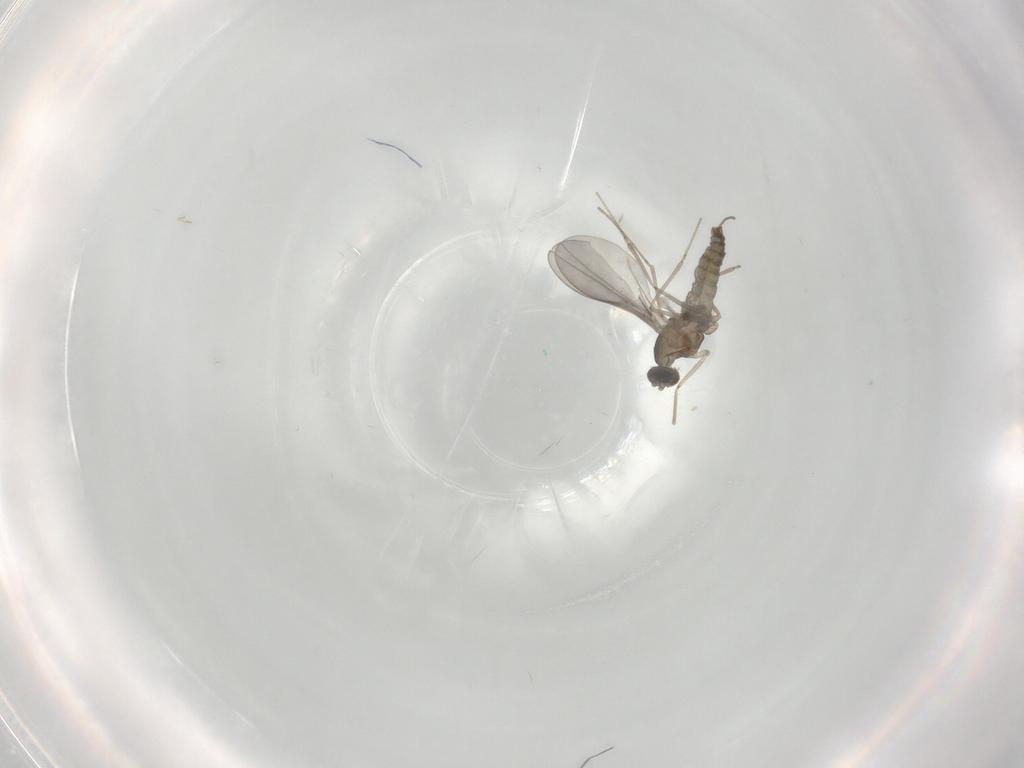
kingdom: Animalia
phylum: Arthropoda
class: Insecta
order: Diptera
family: Cecidomyiidae
